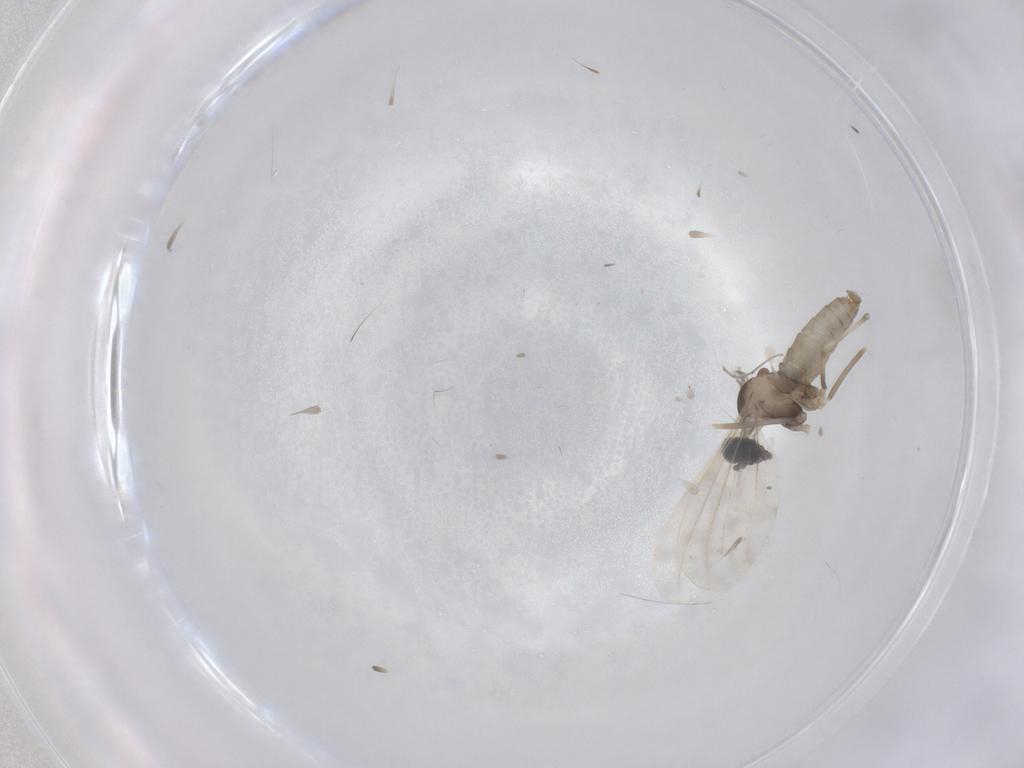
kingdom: Animalia
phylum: Arthropoda
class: Insecta
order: Diptera
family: Cecidomyiidae
